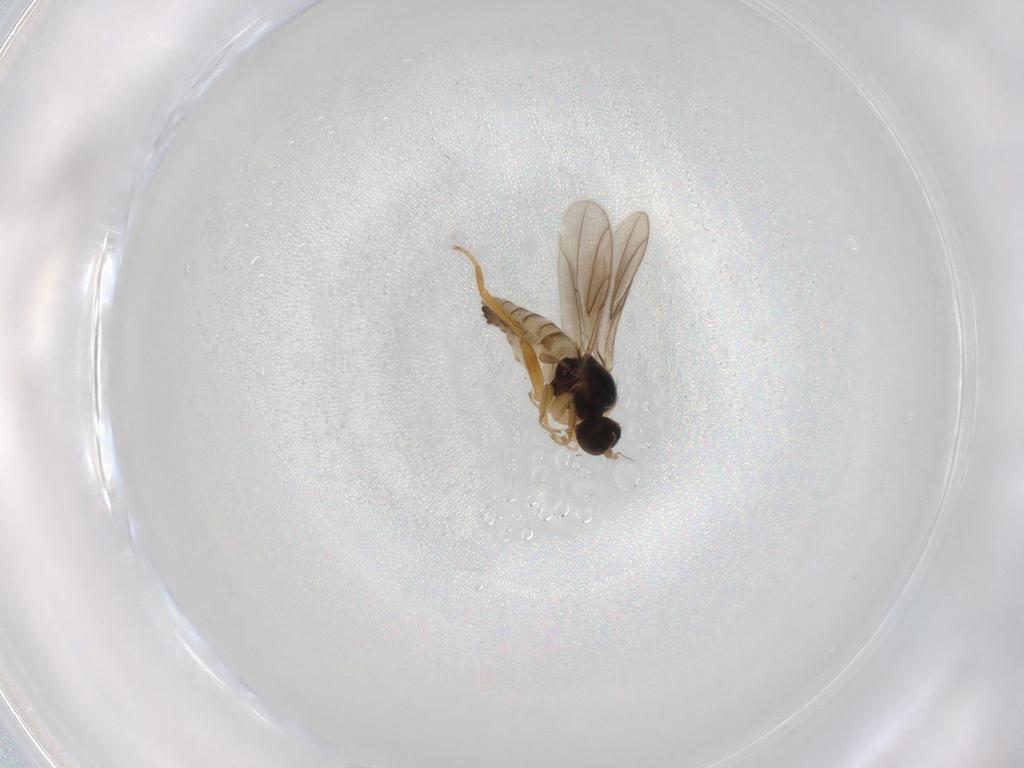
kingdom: Animalia
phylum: Arthropoda
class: Insecta
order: Diptera
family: Hybotidae
